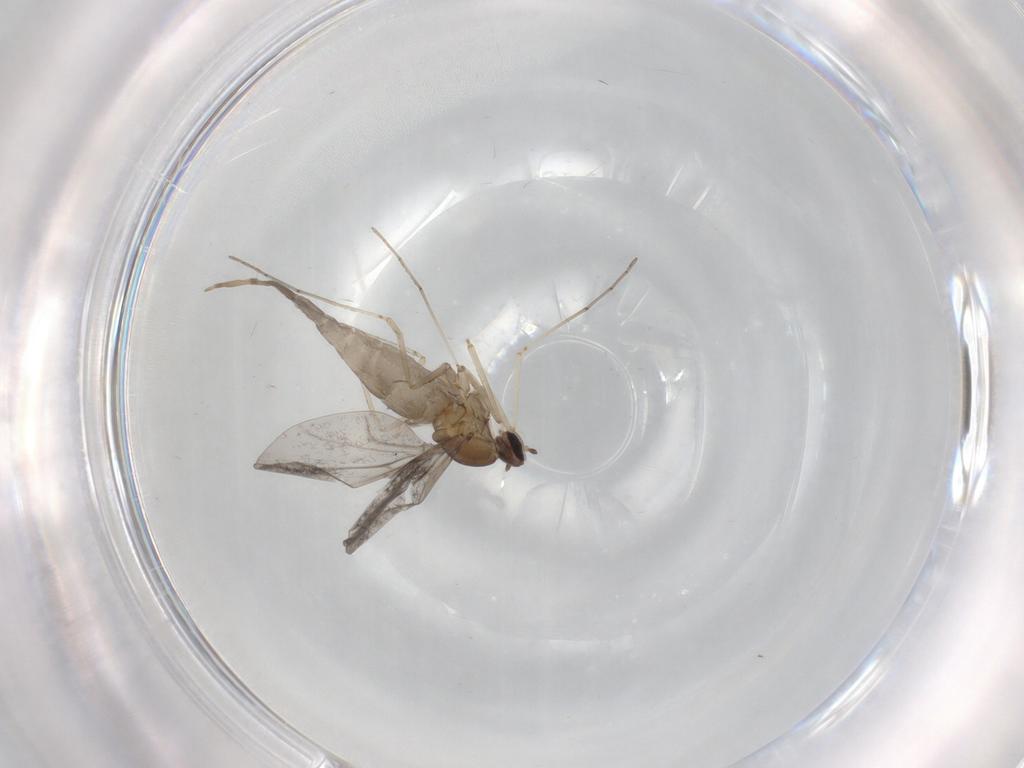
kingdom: Animalia
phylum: Arthropoda
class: Insecta
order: Diptera
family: Cecidomyiidae
